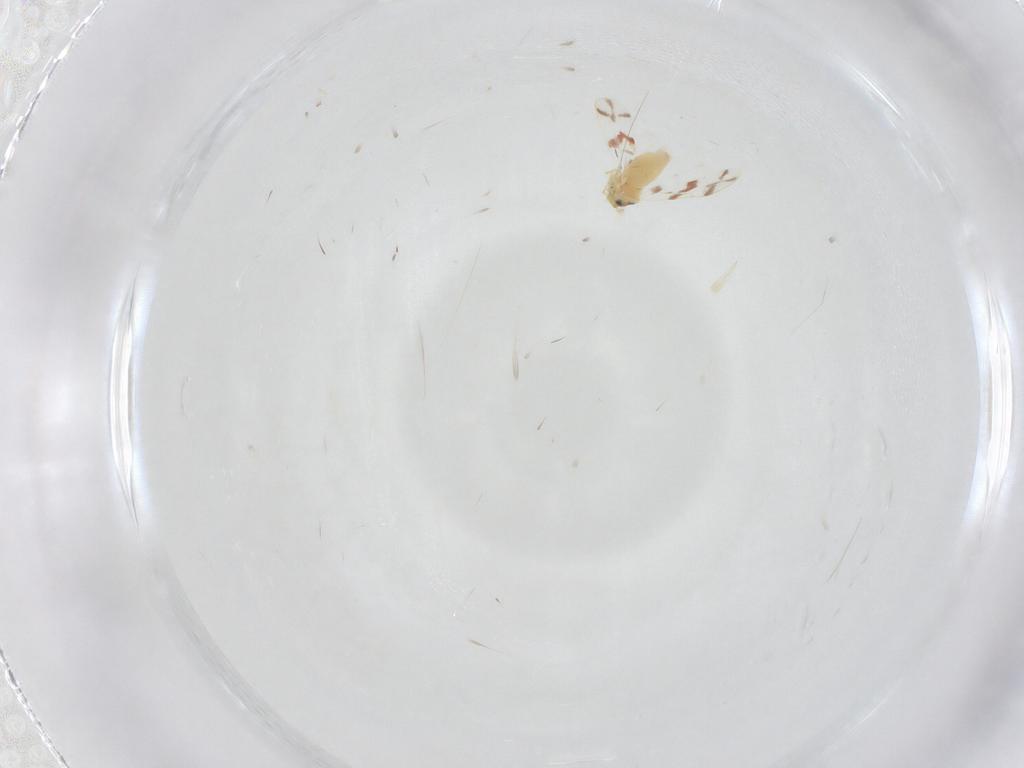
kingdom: Animalia
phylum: Arthropoda
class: Insecta
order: Hemiptera
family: Aleyrodidae
